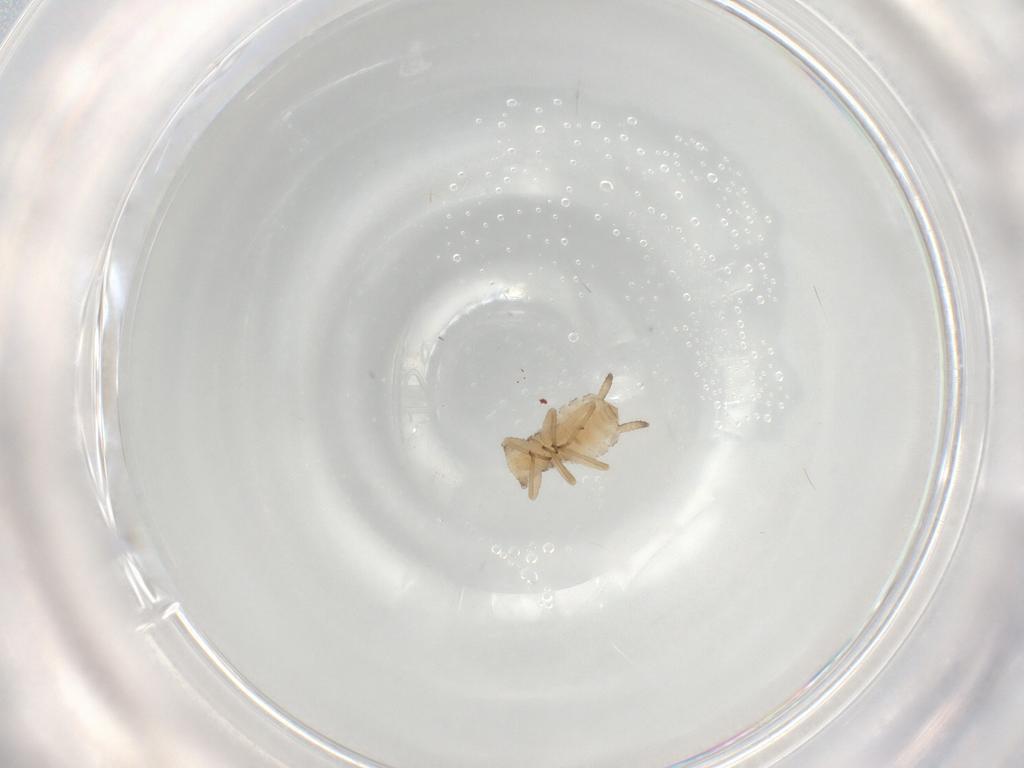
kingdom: Animalia
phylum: Arthropoda
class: Insecta
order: Hemiptera
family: Aphididae
